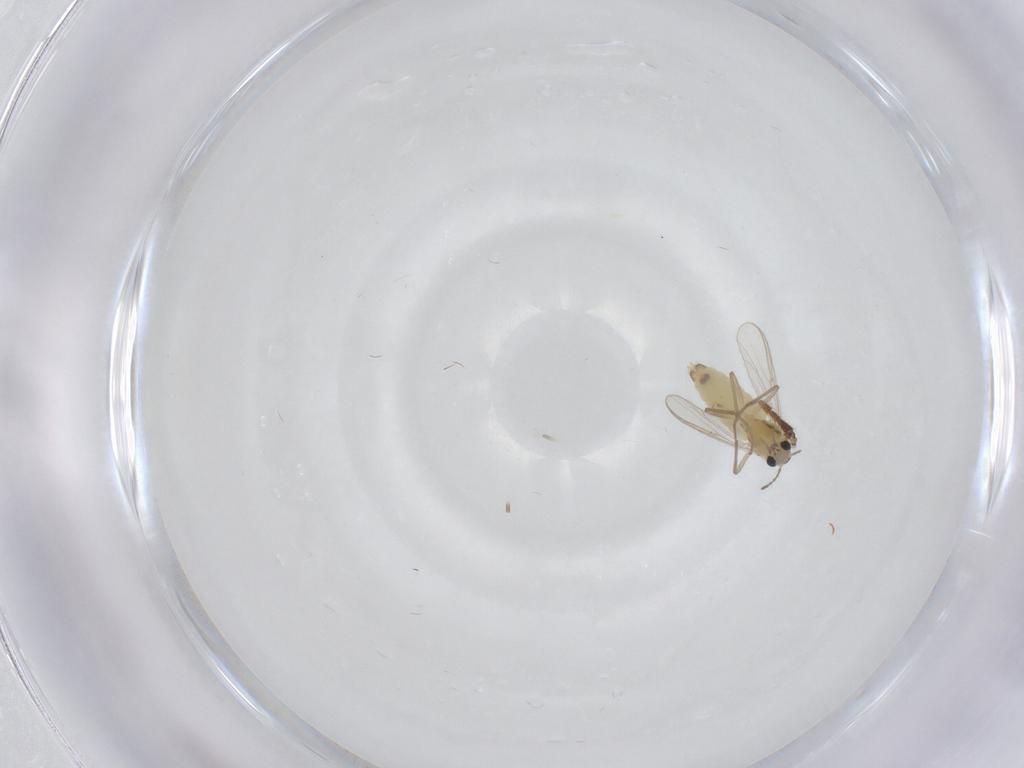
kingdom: Animalia
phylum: Arthropoda
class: Insecta
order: Diptera
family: Chironomidae
